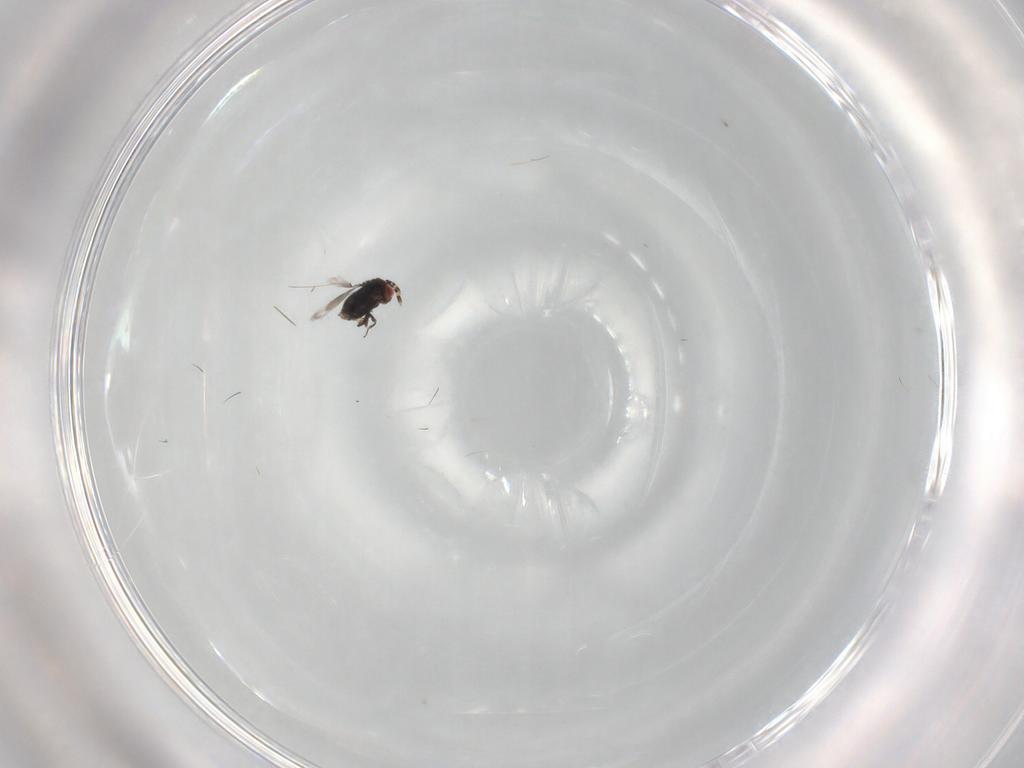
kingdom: Animalia
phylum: Arthropoda
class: Insecta
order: Hymenoptera
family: Azotidae
